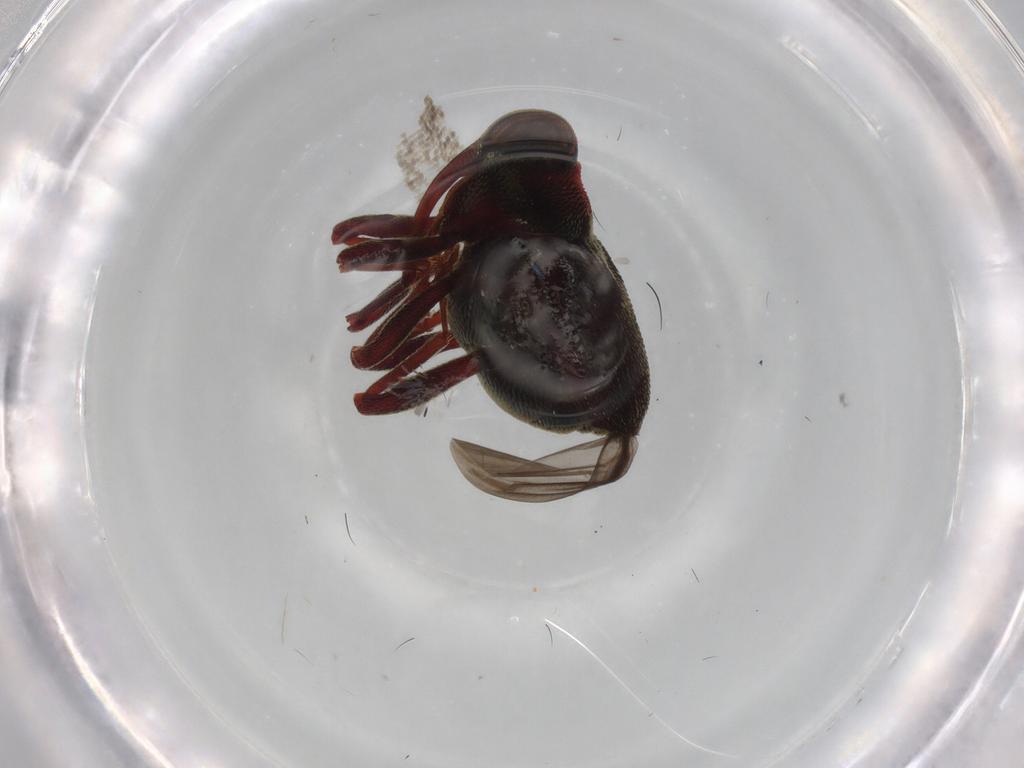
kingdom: Animalia
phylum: Arthropoda
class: Insecta
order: Coleoptera
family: Curculionidae
